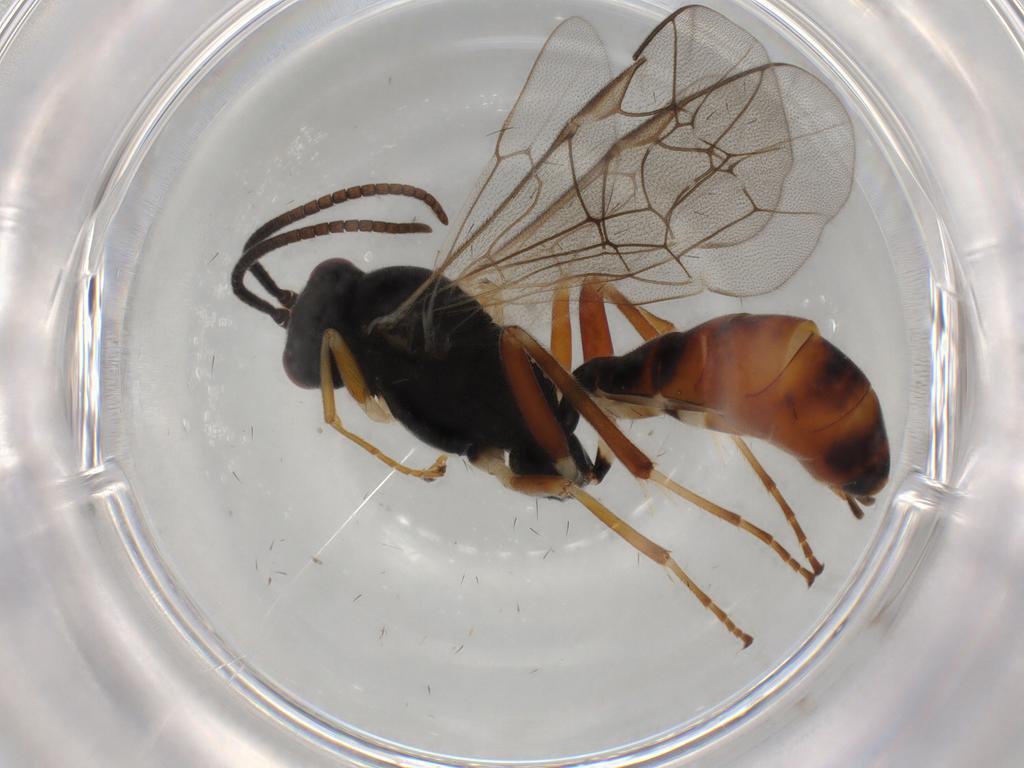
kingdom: Animalia
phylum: Arthropoda
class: Insecta
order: Hymenoptera
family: Ichneumonidae
